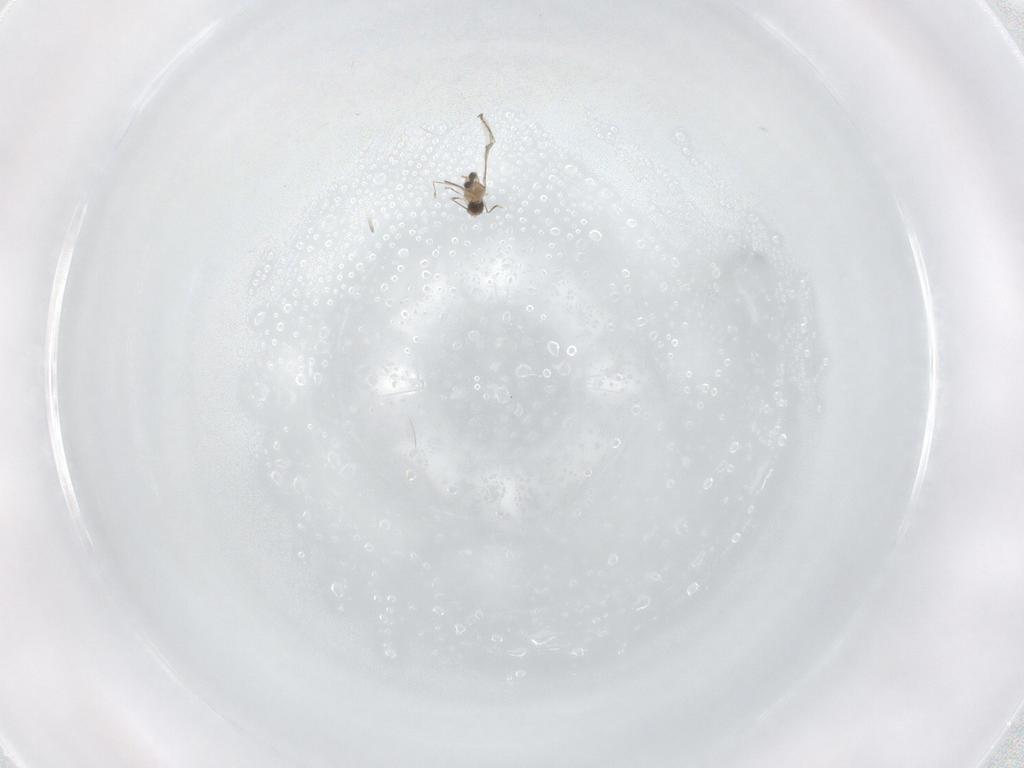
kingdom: Animalia
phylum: Arthropoda
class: Insecta
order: Diptera
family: Cecidomyiidae
